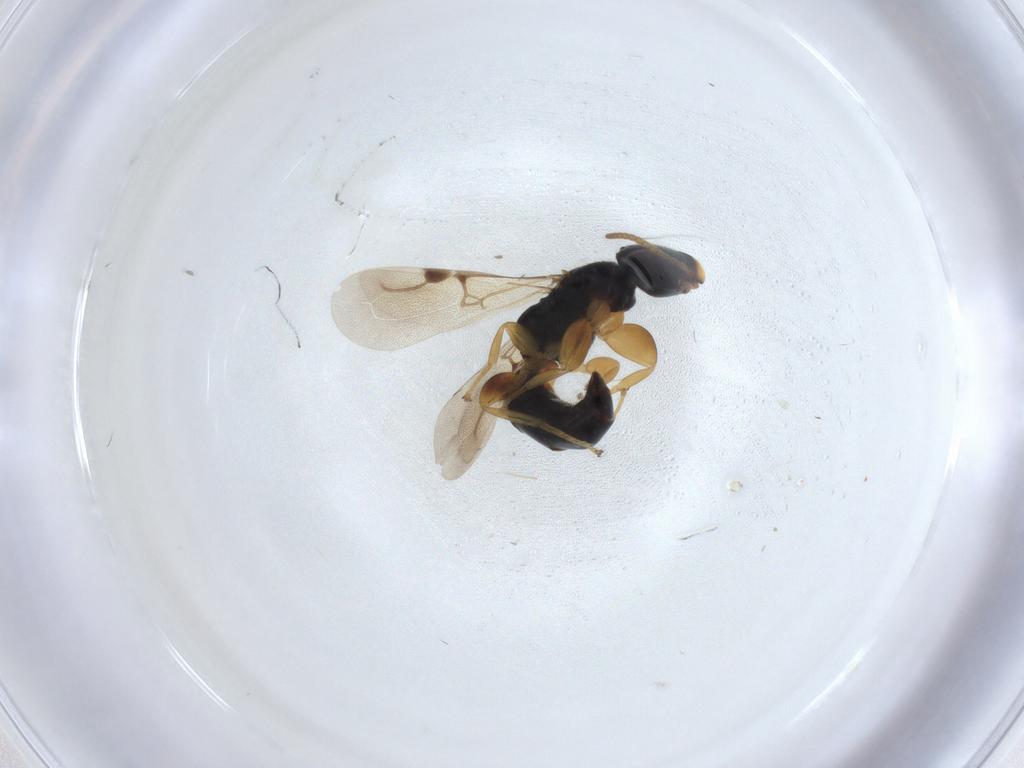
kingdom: Animalia
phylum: Arthropoda
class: Insecta
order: Hymenoptera
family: Bethylidae
